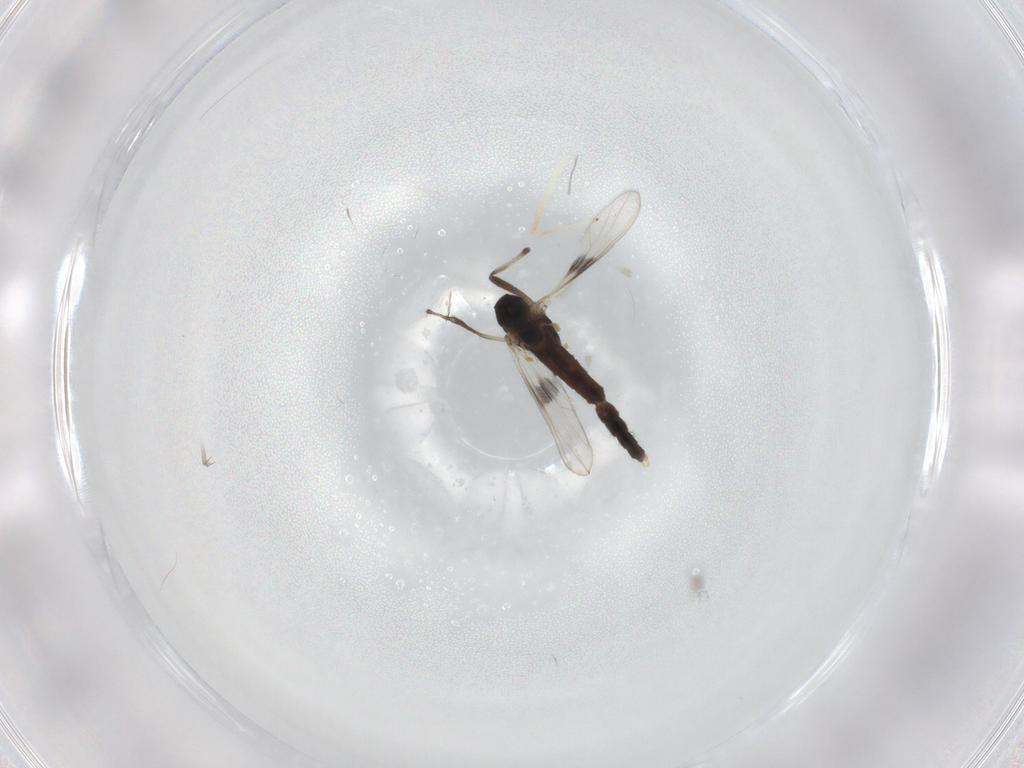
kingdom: Animalia
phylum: Arthropoda
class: Insecta
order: Diptera
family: Chironomidae
